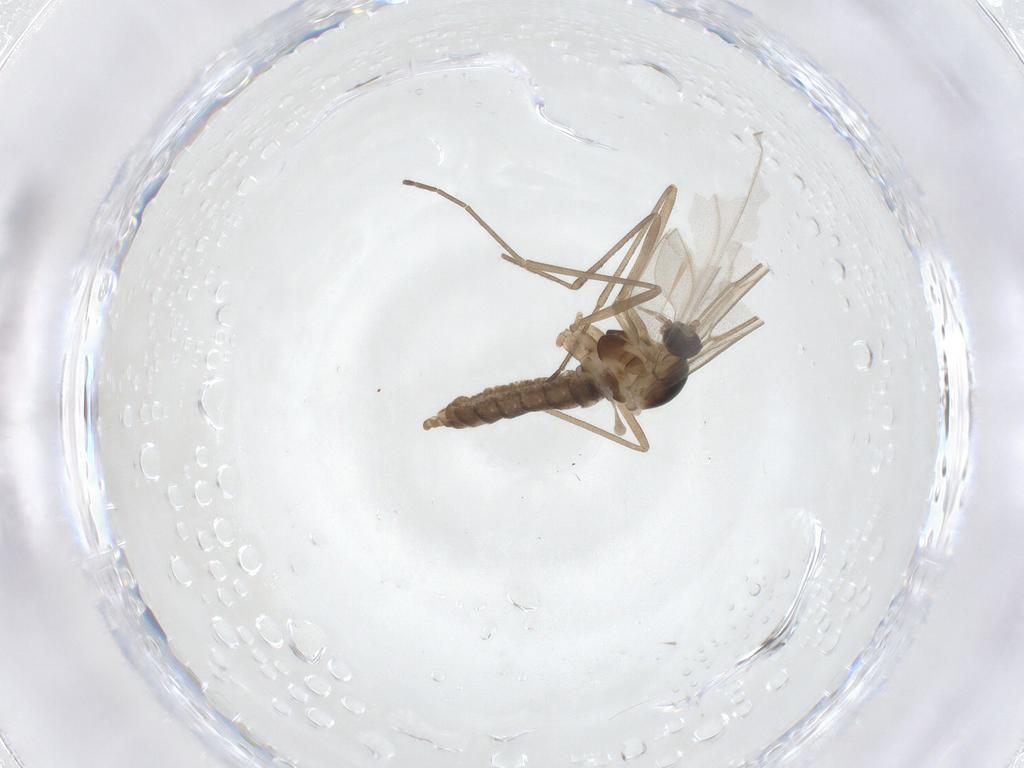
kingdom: Animalia
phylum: Arthropoda
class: Insecta
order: Diptera
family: Cecidomyiidae
